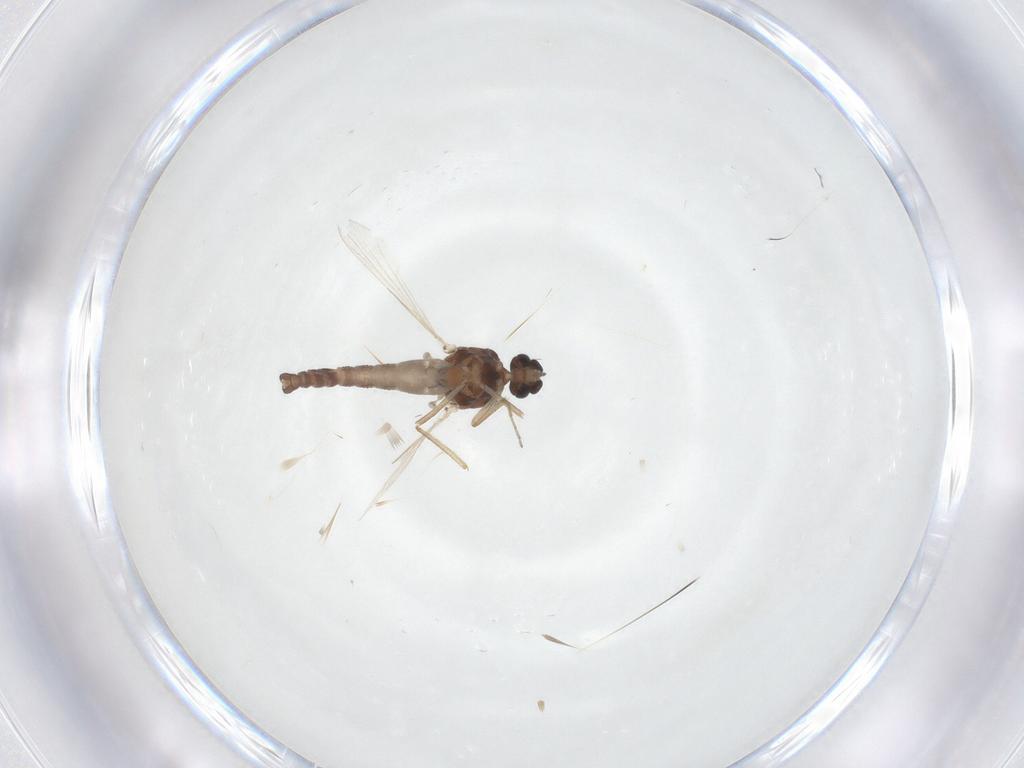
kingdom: Animalia
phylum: Arthropoda
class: Insecta
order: Diptera
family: Ceratopogonidae
